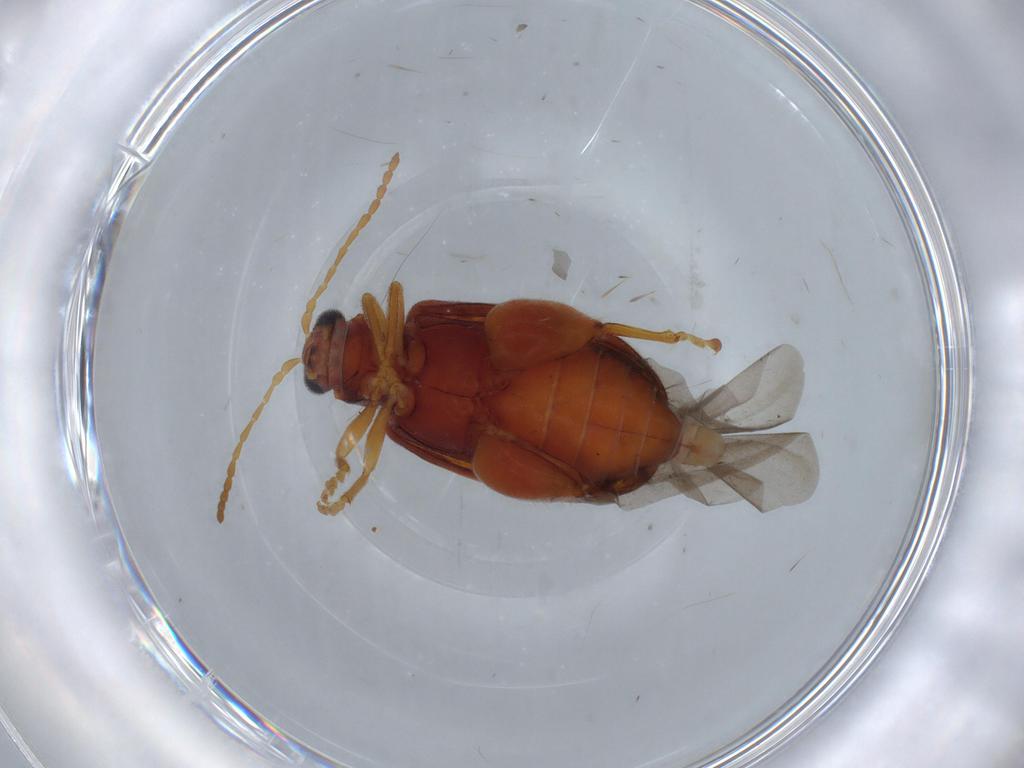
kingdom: Animalia
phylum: Arthropoda
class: Insecta
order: Coleoptera
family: Chrysomelidae
